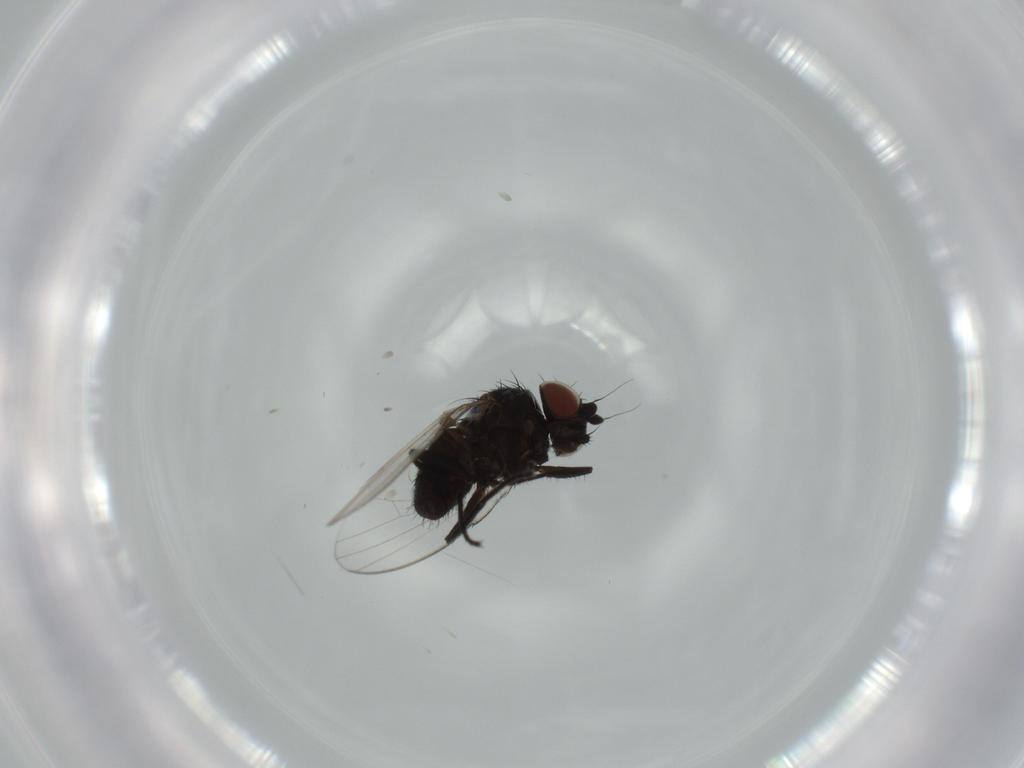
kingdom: Animalia
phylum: Arthropoda
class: Insecta
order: Diptera
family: Milichiidae
